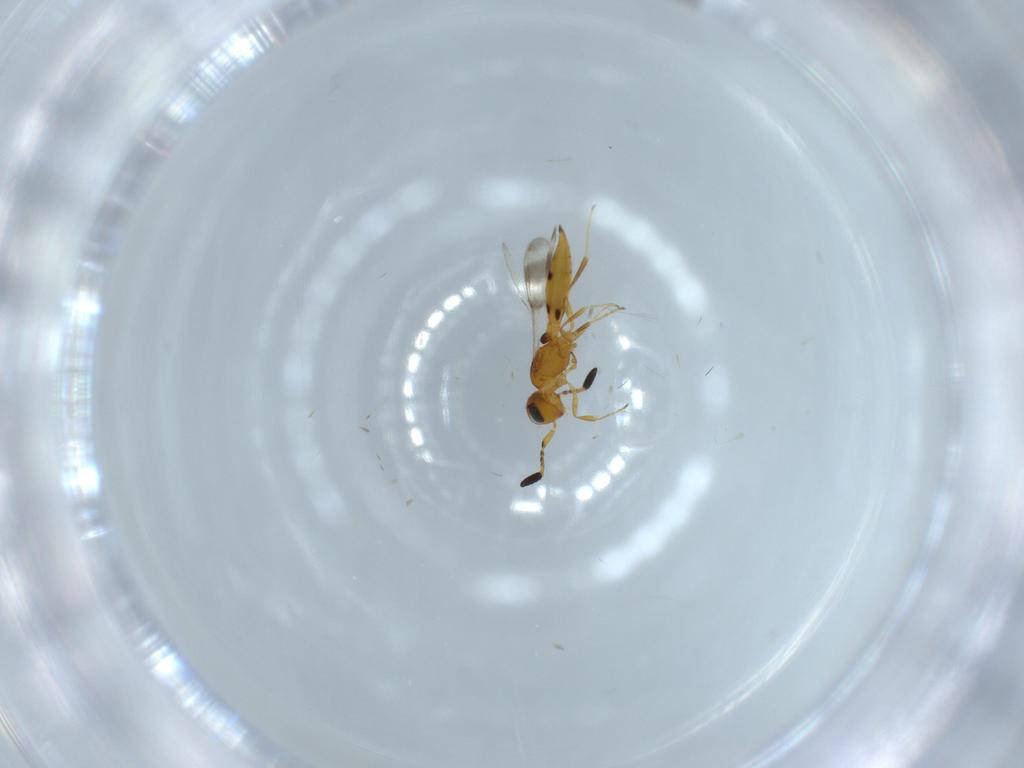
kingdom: Animalia
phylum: Arthropoda
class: Insecta
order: Hymenoptera
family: Scelionidae
